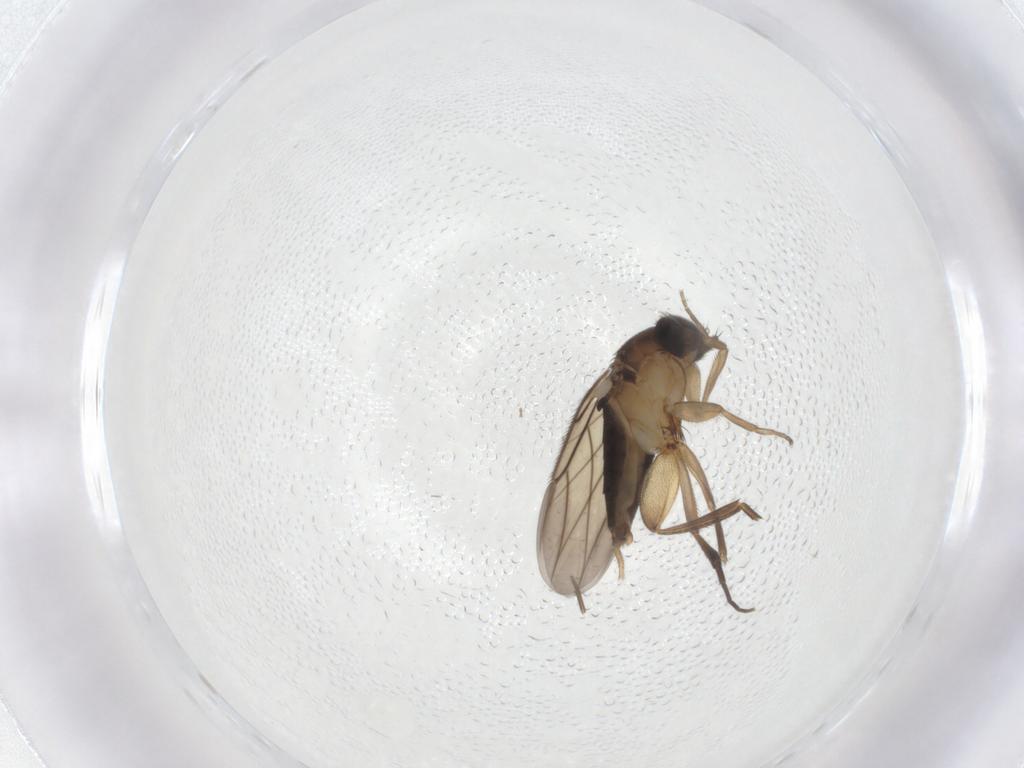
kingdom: Animalia
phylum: Arthropoda
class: Insecta
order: Diptera
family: Phoridae
